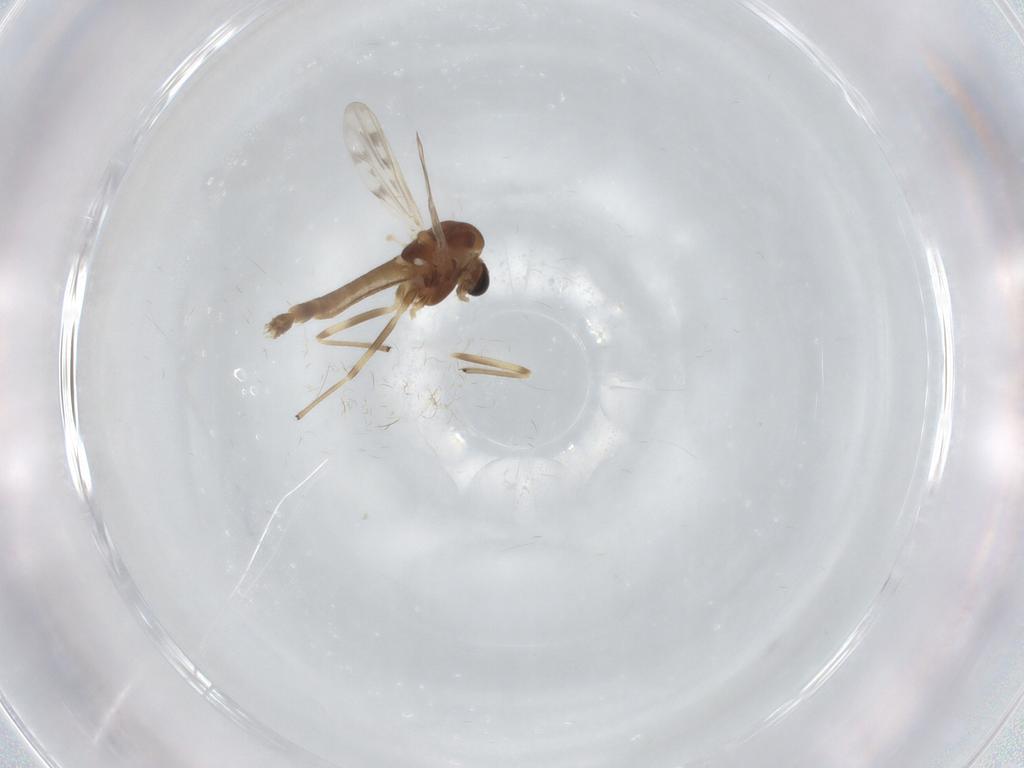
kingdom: Animalia
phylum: Arthropoda
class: Insecta
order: Diptera
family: Chironomidae
